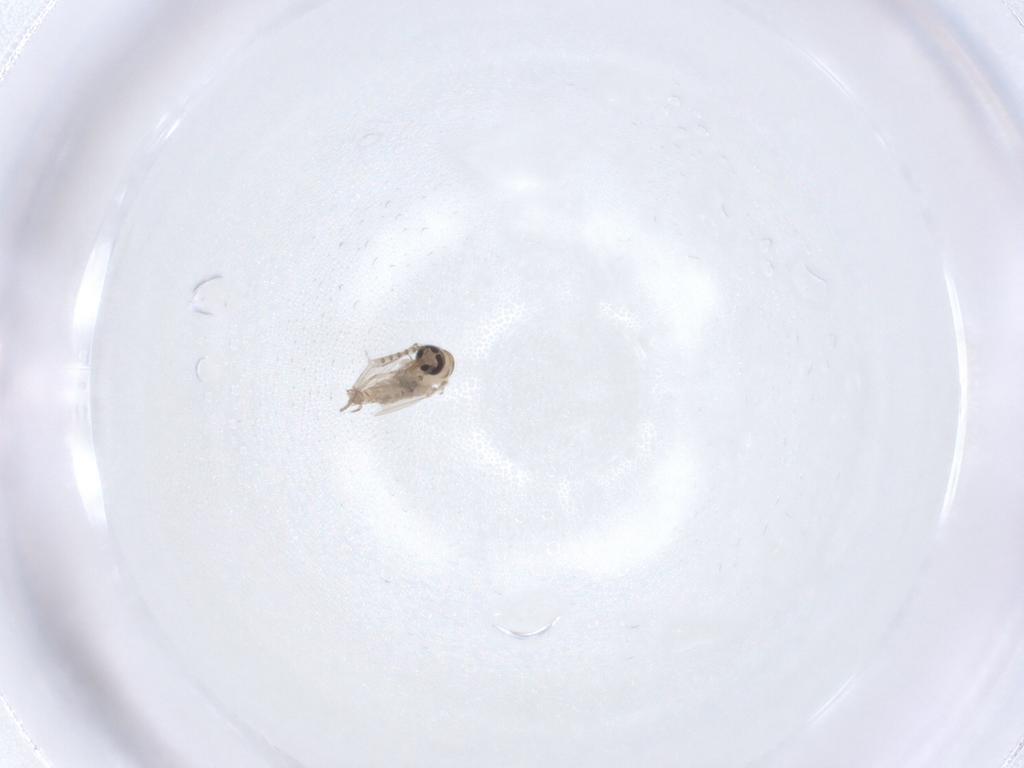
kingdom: Animalia
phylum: Arthropoda
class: Insecta
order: Diptera
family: Psychodidae
